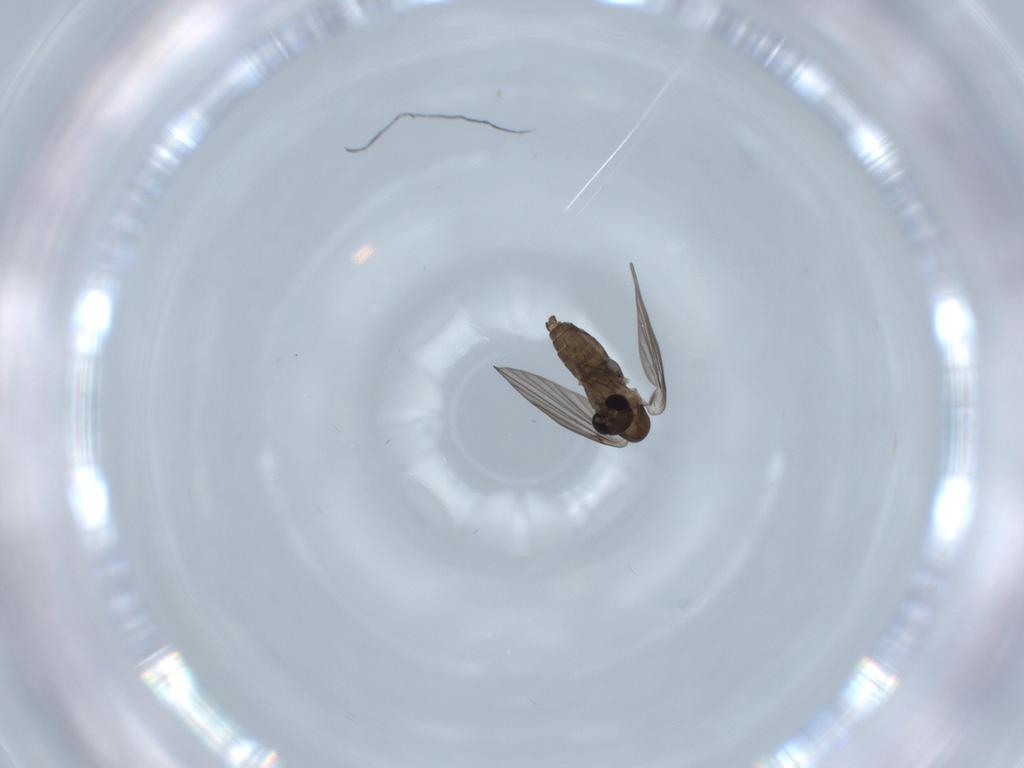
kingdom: Animalia
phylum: Arthropoda
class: Insecta
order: Diptera
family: Psychodidae
